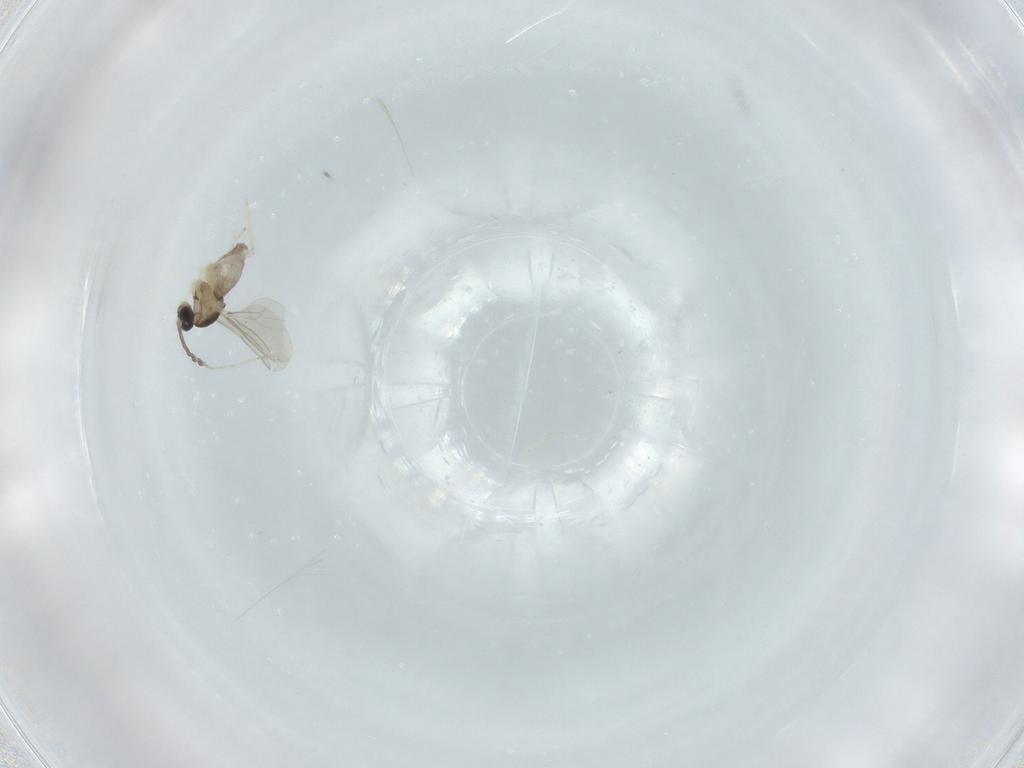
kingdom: Animalia
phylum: Arthropoda
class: Insecta
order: Diptera
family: Cecidomyiidae
